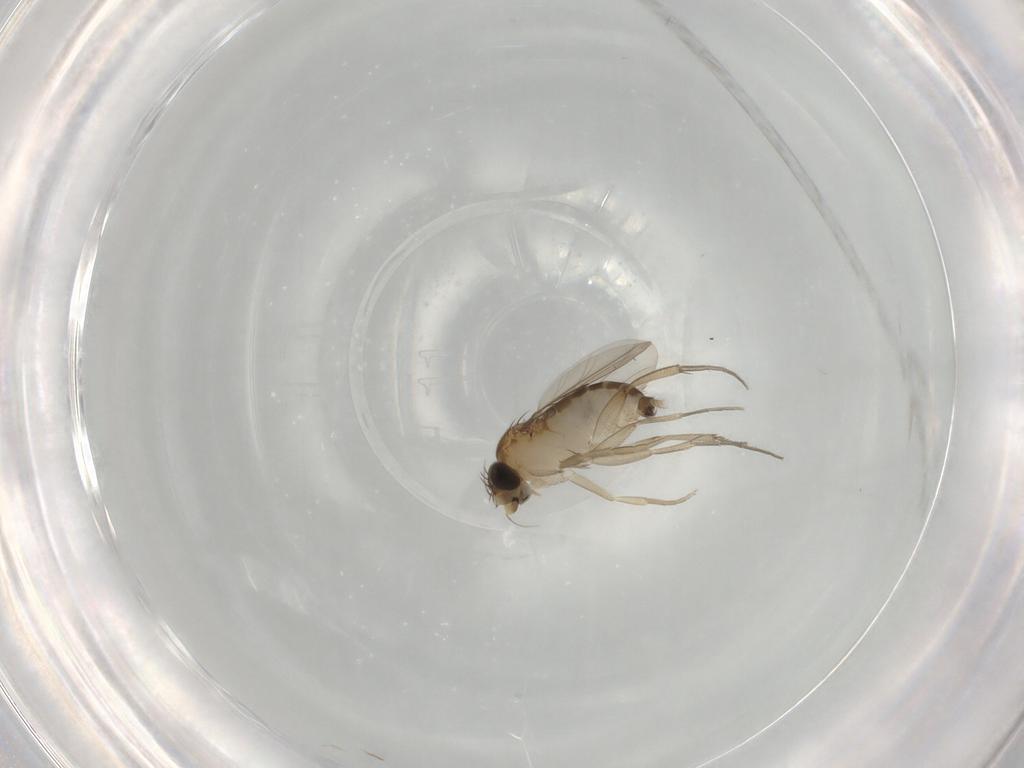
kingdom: Animalia
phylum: Arthropoda
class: Insecta
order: Diptera
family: Phoridae
